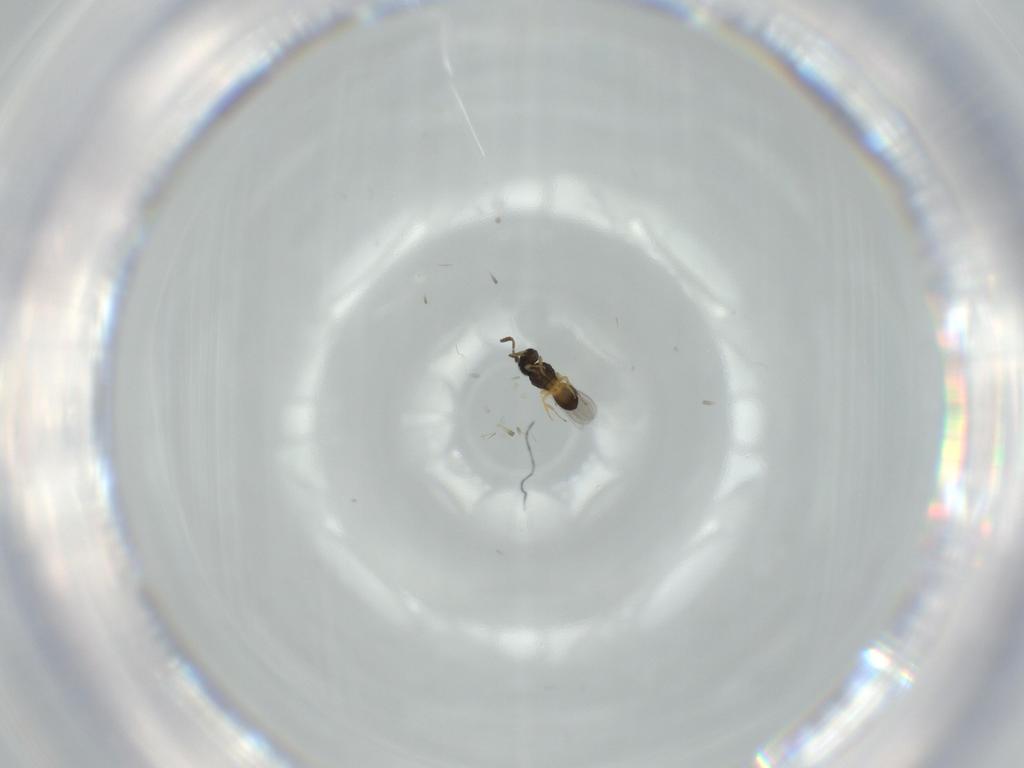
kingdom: Animalia
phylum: Arthropoda
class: Insecta
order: Hymenoptera
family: Scelionidae
